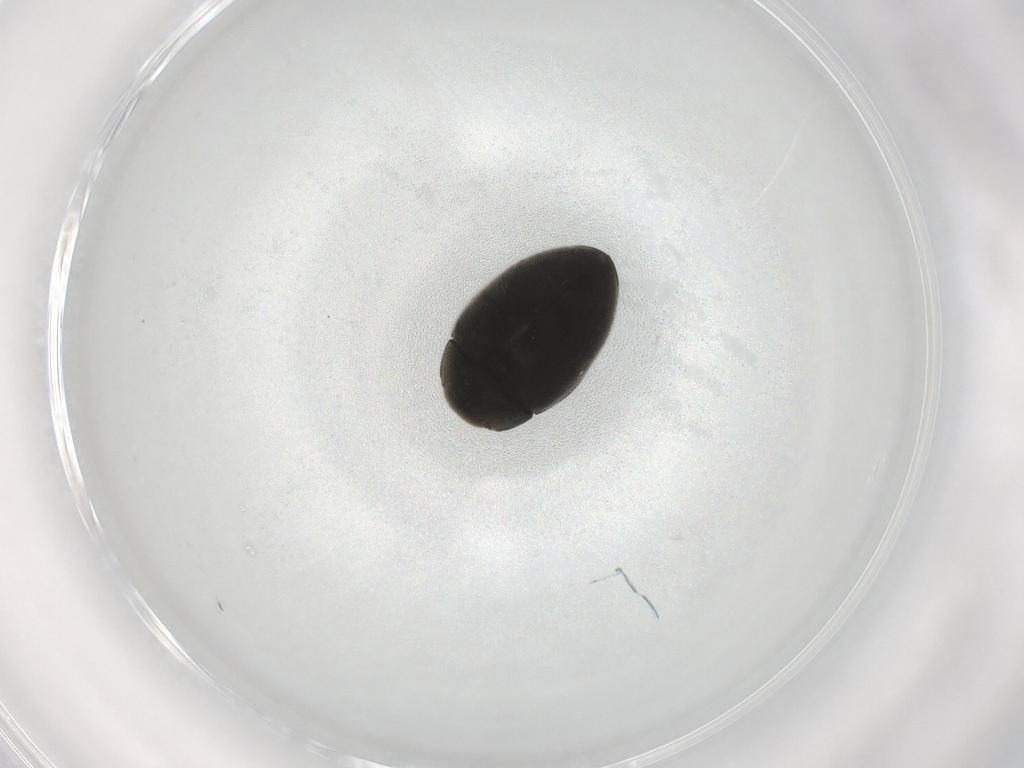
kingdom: Animalia
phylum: Arthropoda
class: Insecta
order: Coleoptera
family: Limnichidae
